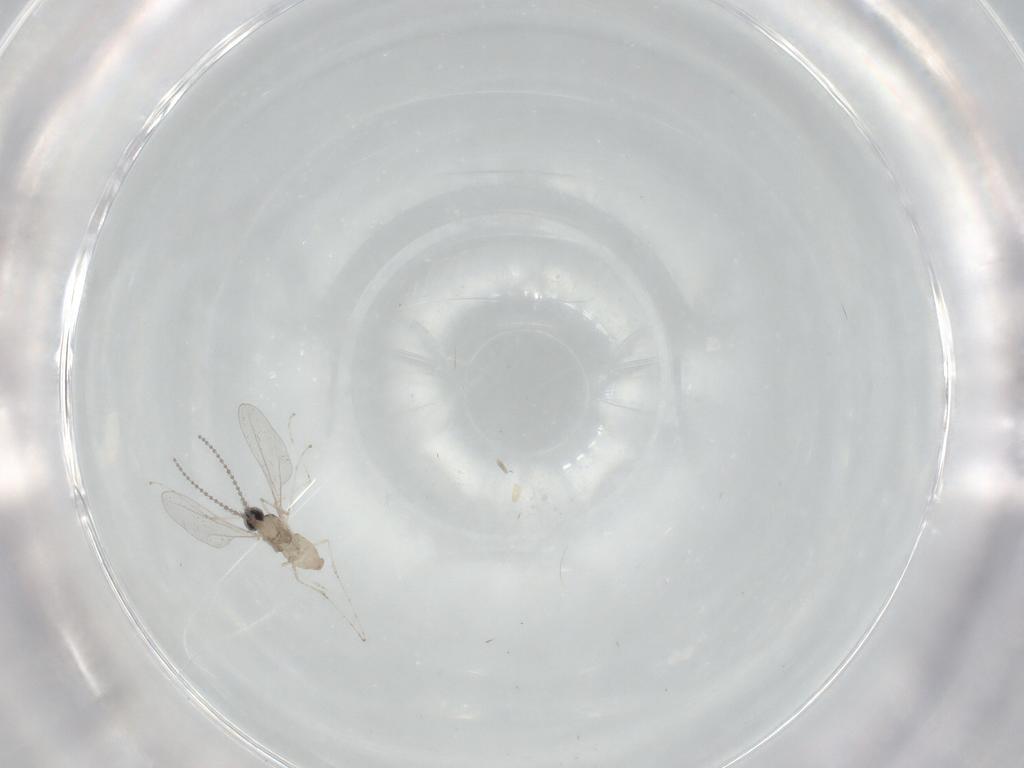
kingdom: Animalia
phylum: Arthropoda
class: Insecta
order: Diptera
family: Cecidomyiidae
